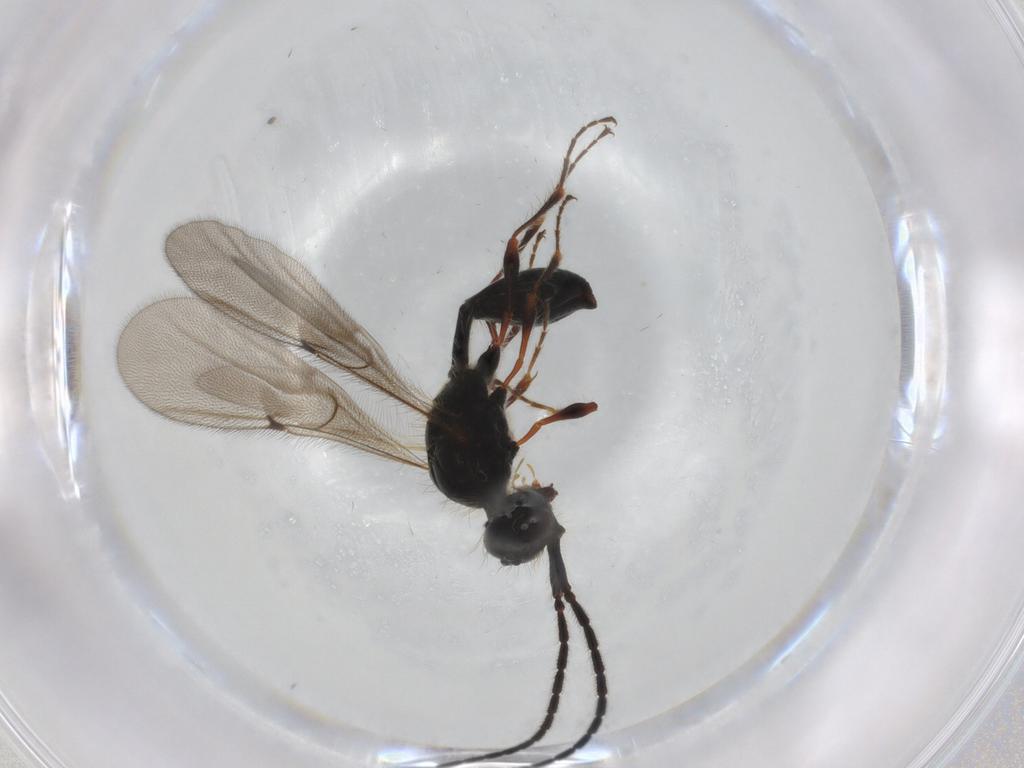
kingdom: Animalia
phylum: Arthropoda
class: Insecta
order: Hymenoptera
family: Diapriidae
